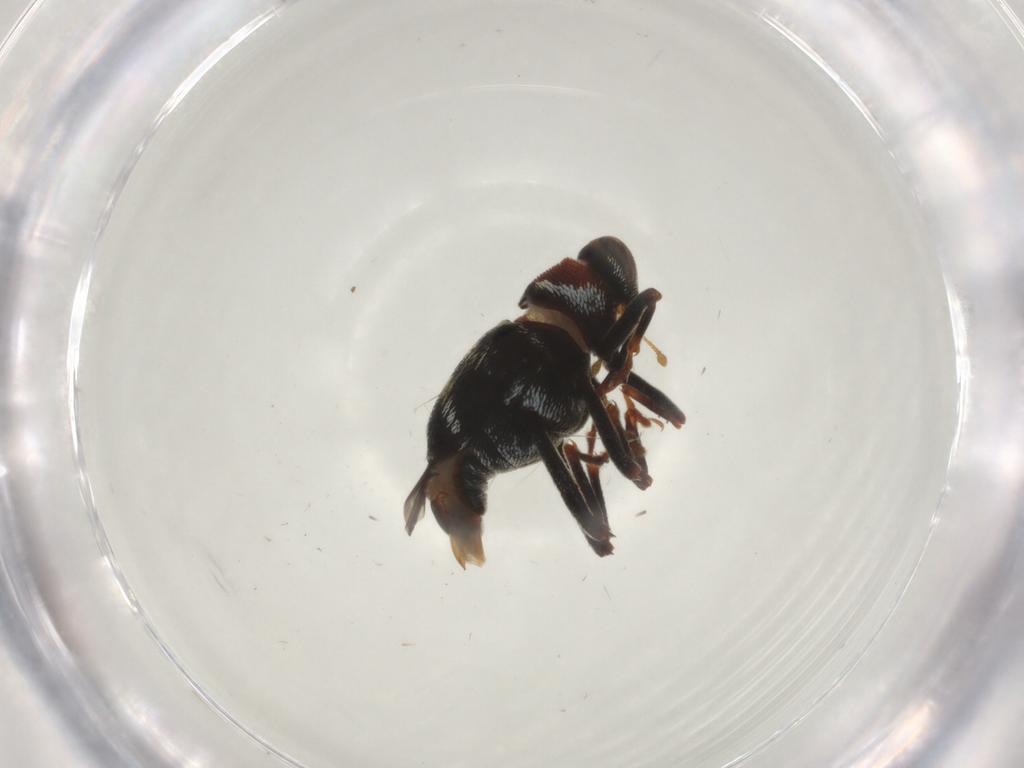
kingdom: Animalia
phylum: Arthropoda
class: Insecta
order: Coleoptera
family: Curculionidae
